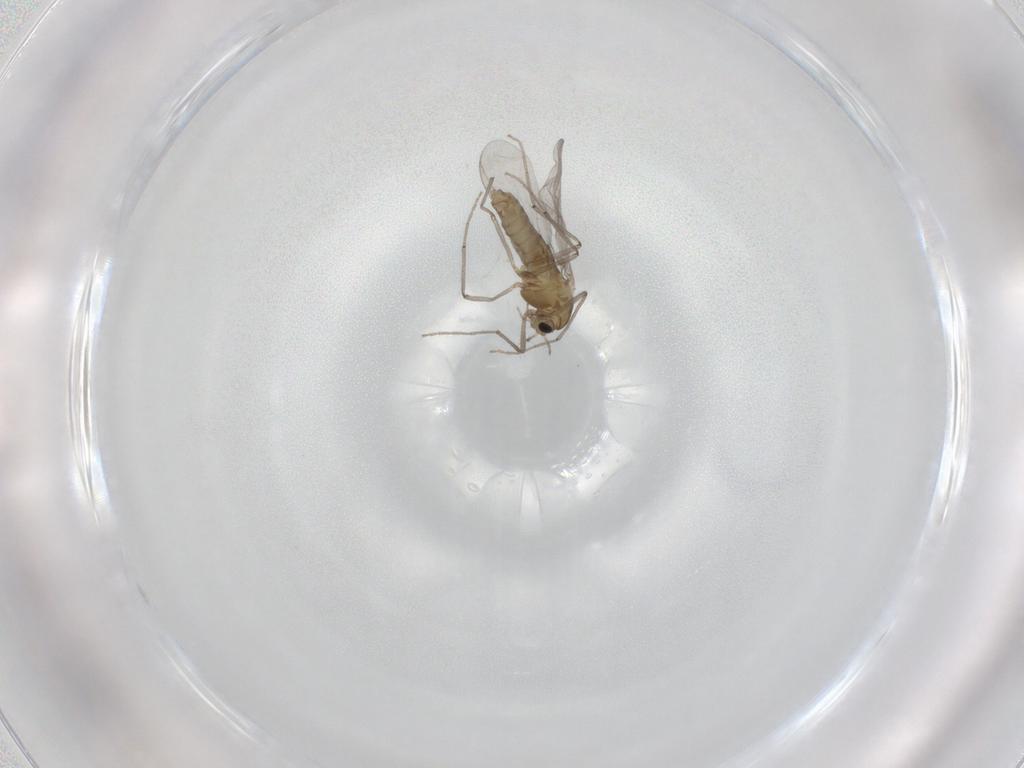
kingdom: Animalia
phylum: Arthropoda
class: Insecta
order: Diptera
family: Chironomidae
